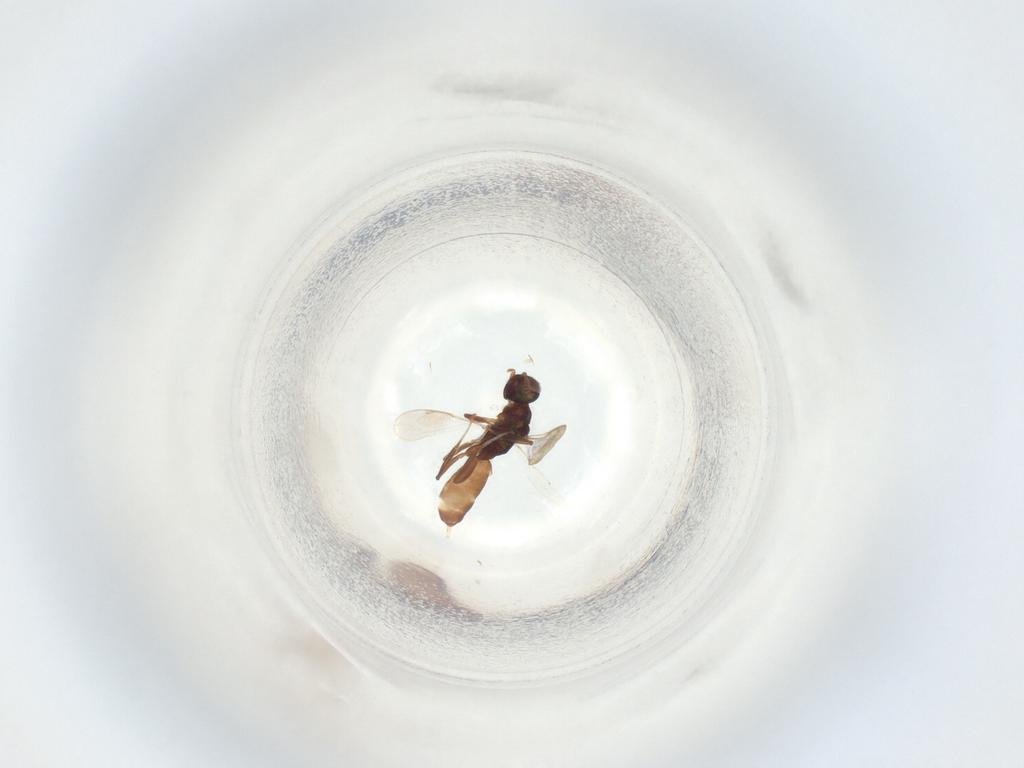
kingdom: Animalia
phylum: Arthropoda
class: Insecta
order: Hymenoptera
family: Cleonyminae
